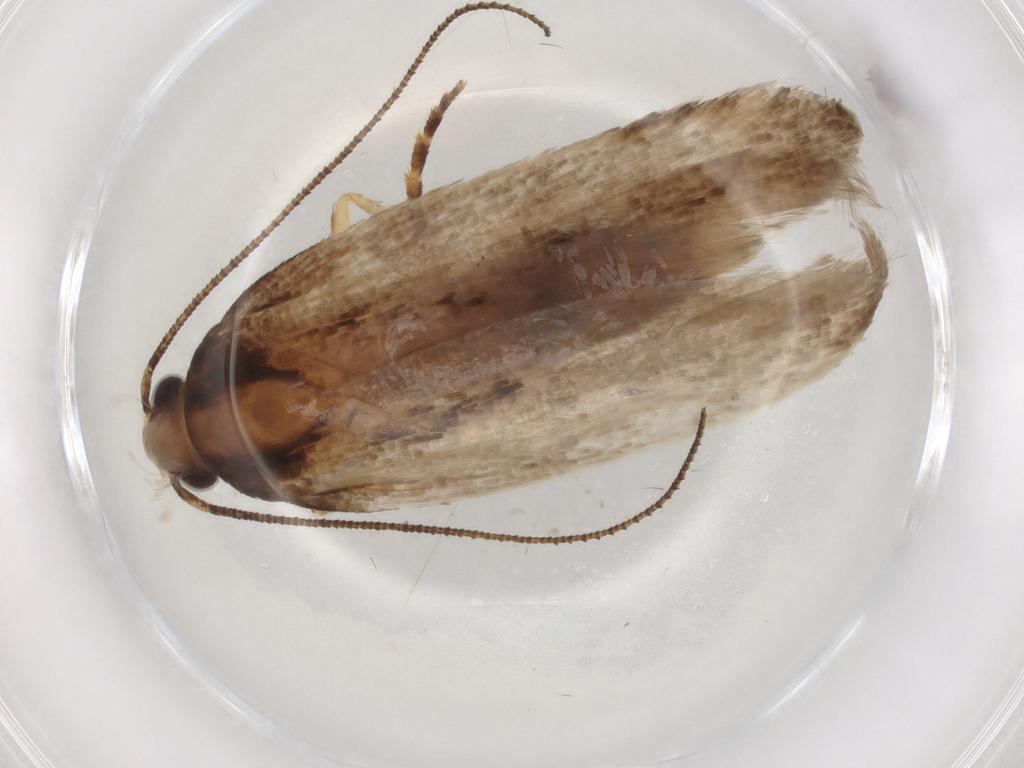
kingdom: Animalia
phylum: Arthropoda
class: Insecta
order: Lepidoptera
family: Gelechiidae
